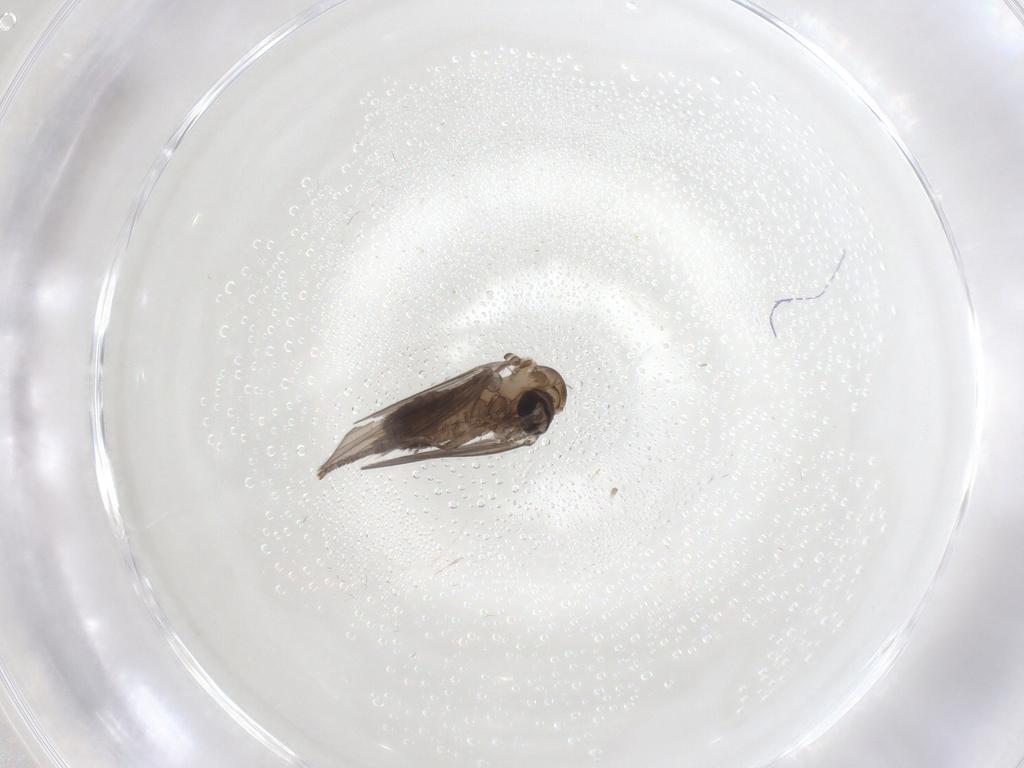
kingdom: Animalia
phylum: Arthropoda
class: Insecta
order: Diptera
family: Psychodidae
